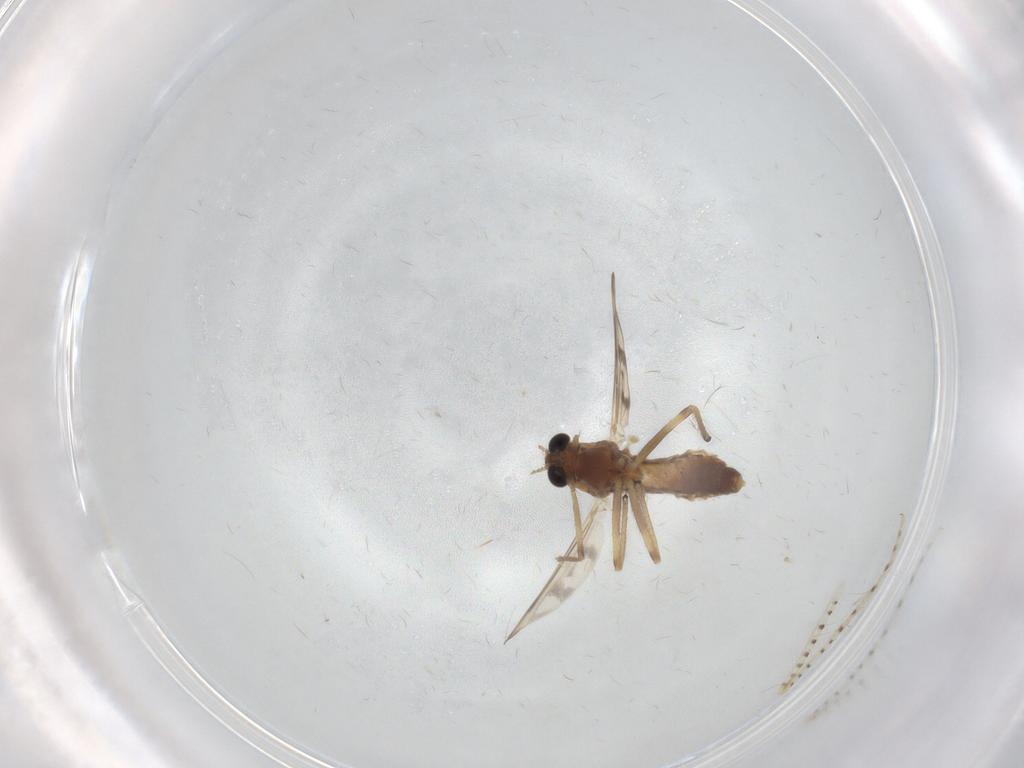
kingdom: Animalia
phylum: Arthropoda
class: Insecta
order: Diptera
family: Chironomidae
